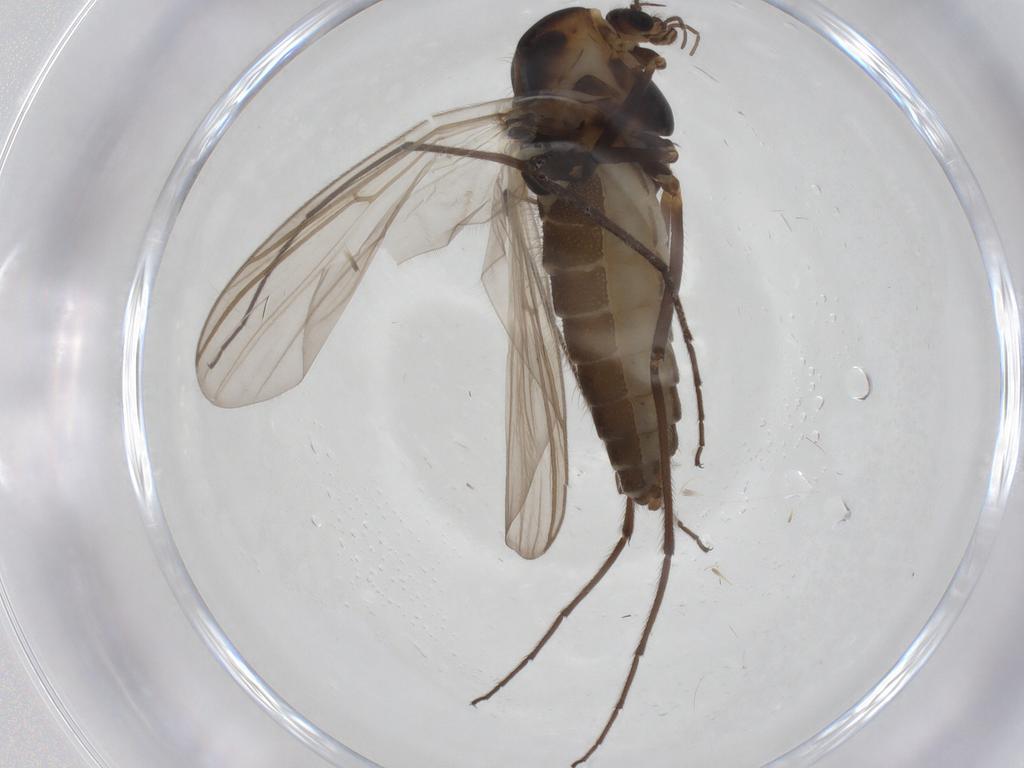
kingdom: Animalia
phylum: Arthropoda
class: Insecta
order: Diptera
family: Chironomidae
